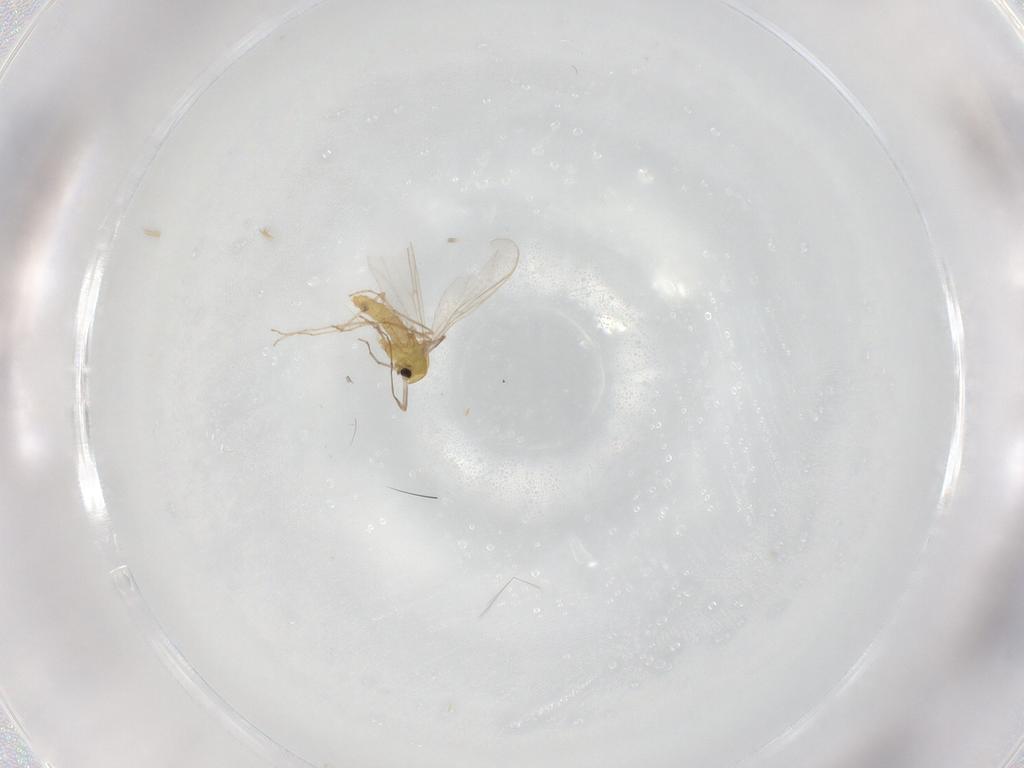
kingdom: Animalia
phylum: Arthropoda
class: Insecta
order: Diptera
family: Chironomidae
